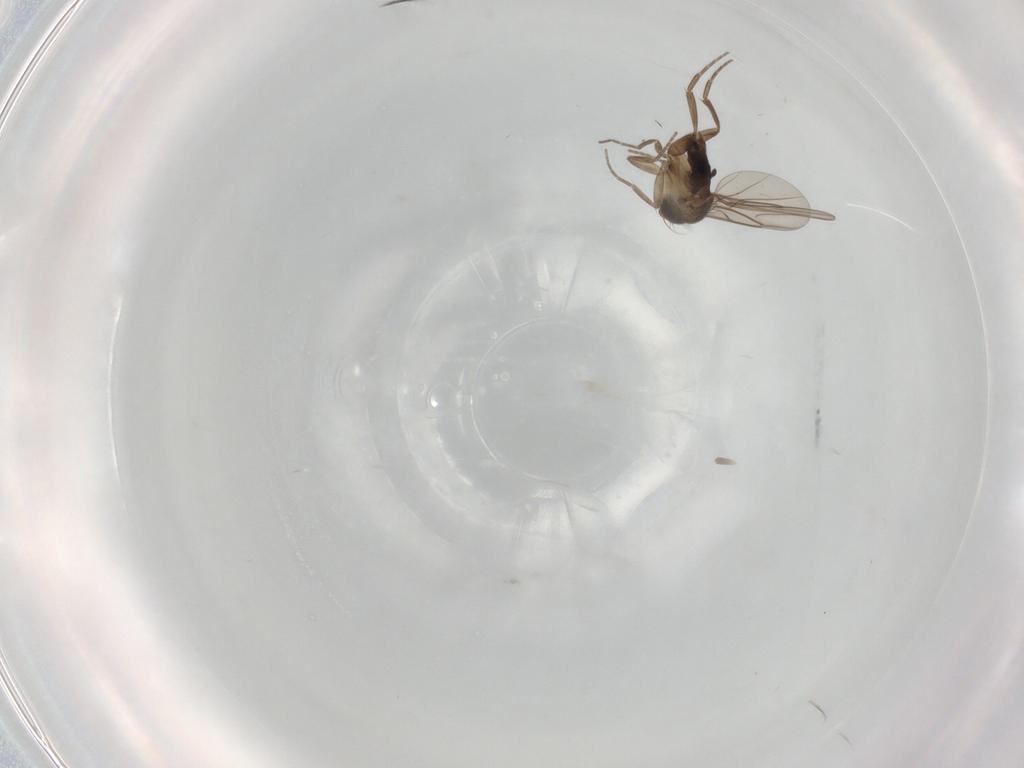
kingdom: Animalia
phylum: Arthropoda
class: Insecta
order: Diptera
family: Phoridae
